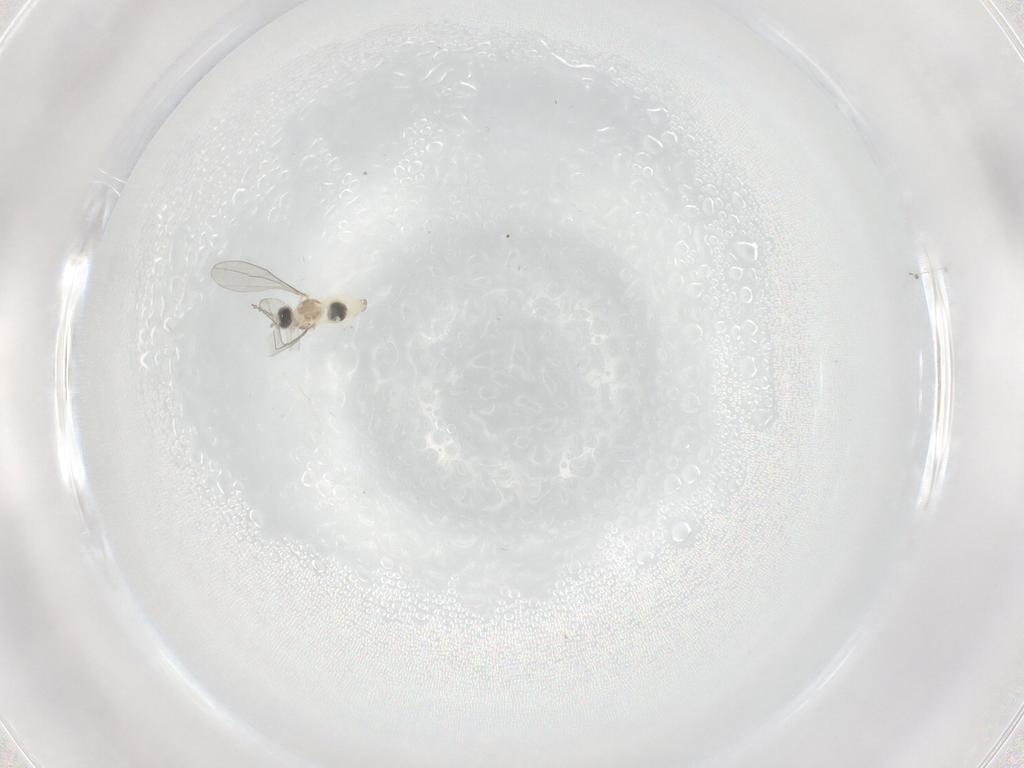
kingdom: Animalia
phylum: Arthropoda
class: Insecta
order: Diptera
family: Cecidomyiidae
